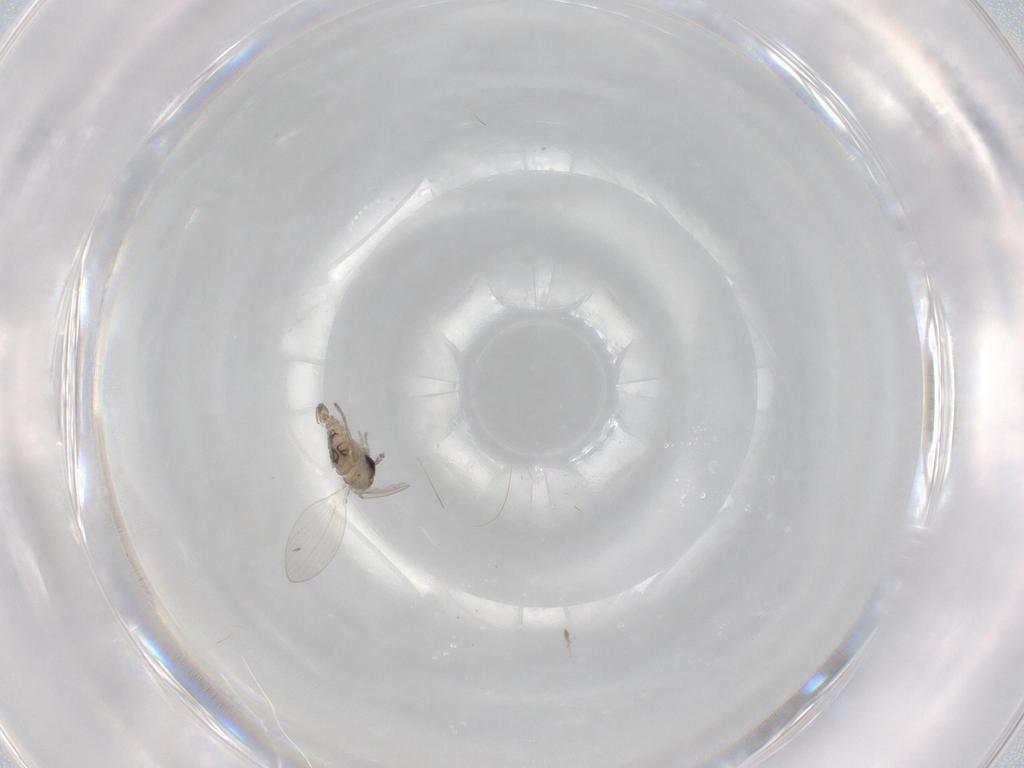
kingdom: Animalia
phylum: Arthropoda
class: Insecta
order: Diptera
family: Psychodidae
